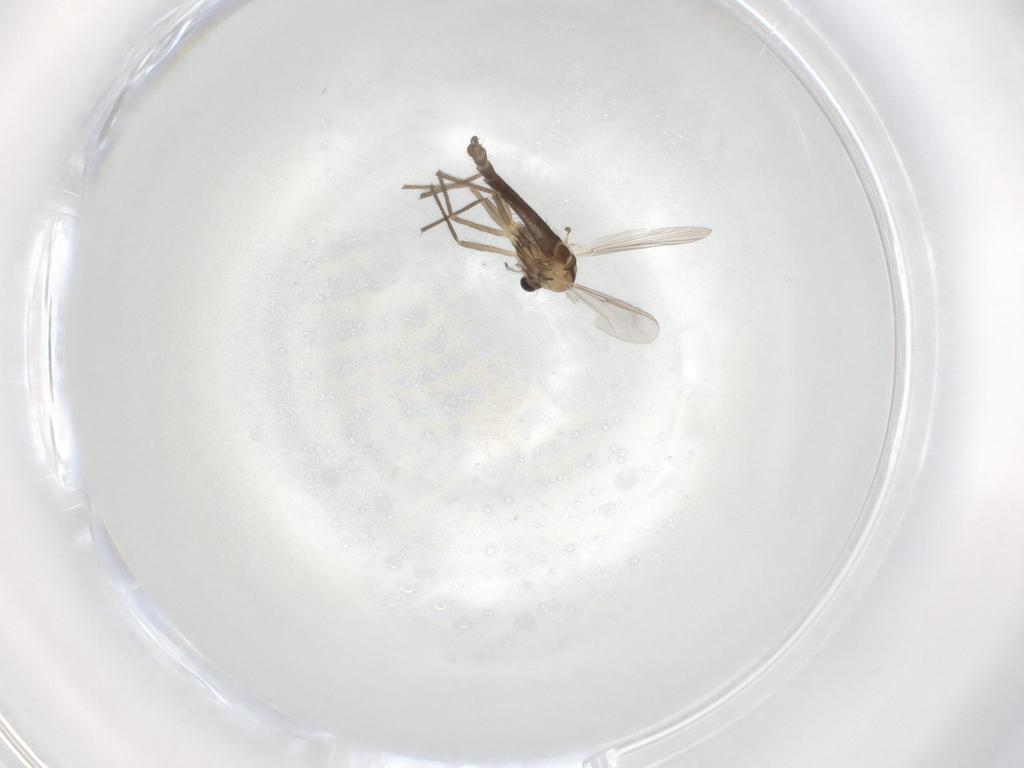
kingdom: Animalia
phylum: Arthropoda
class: Insecta
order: Diptera
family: Chironomidae
